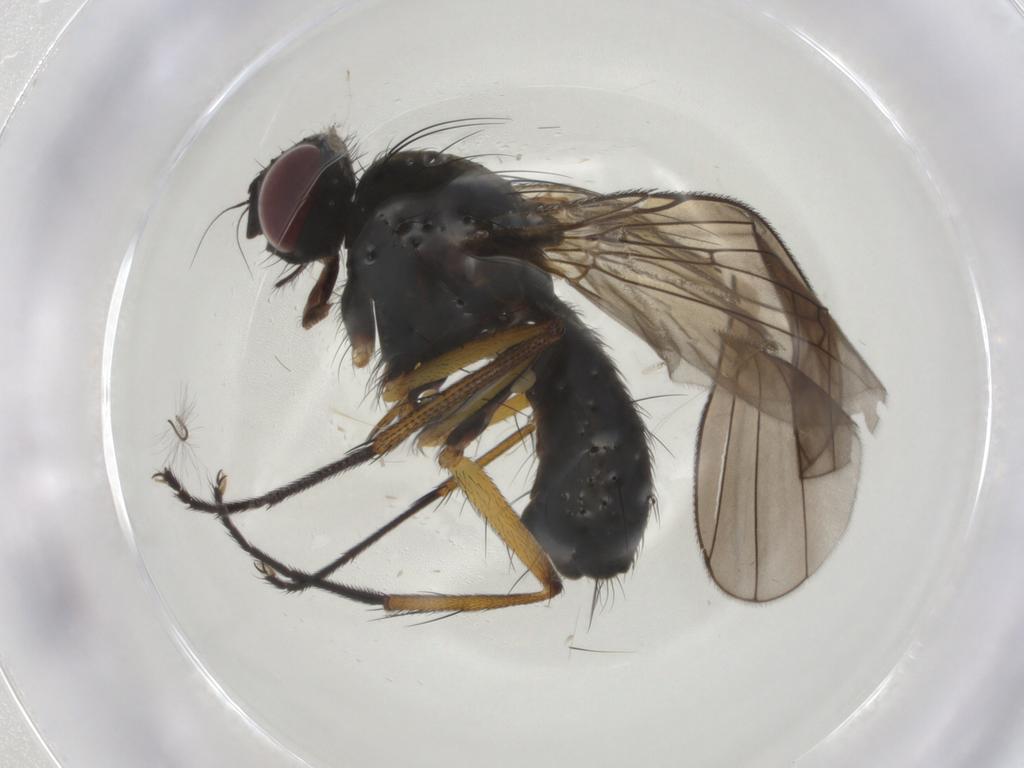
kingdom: Animalia
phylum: Arthropoda
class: Insecta
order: Diptera
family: Muscidae
